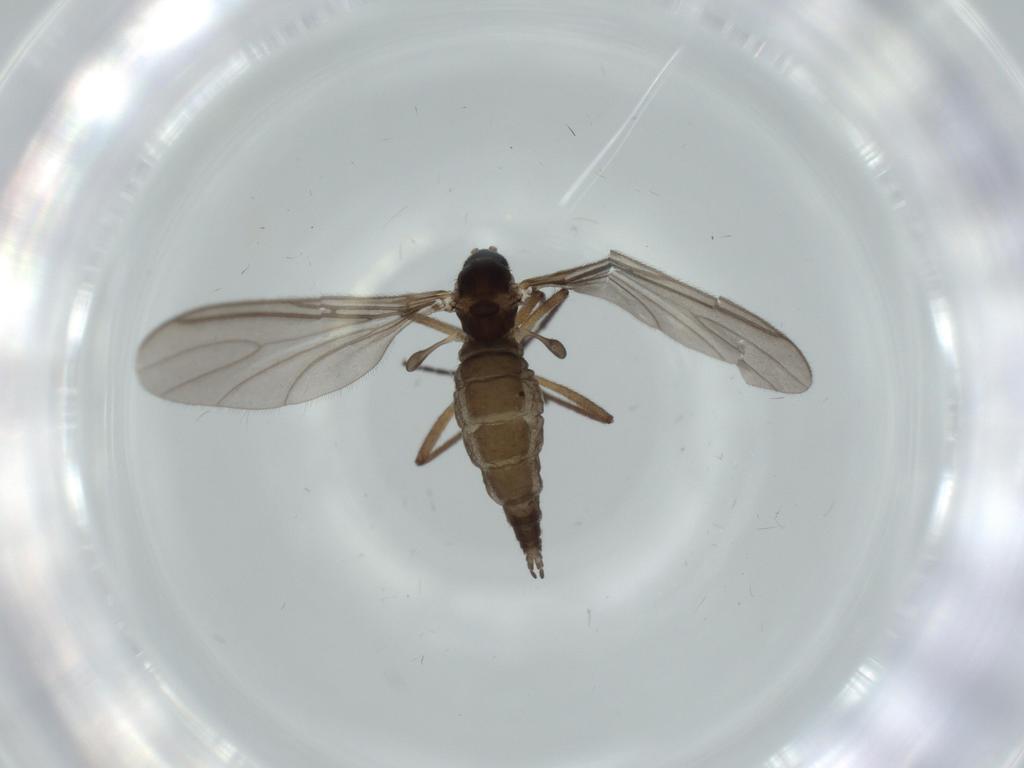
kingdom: Animalia
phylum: Arthropoda
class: Insecta
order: Diptera
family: Sciaridae
